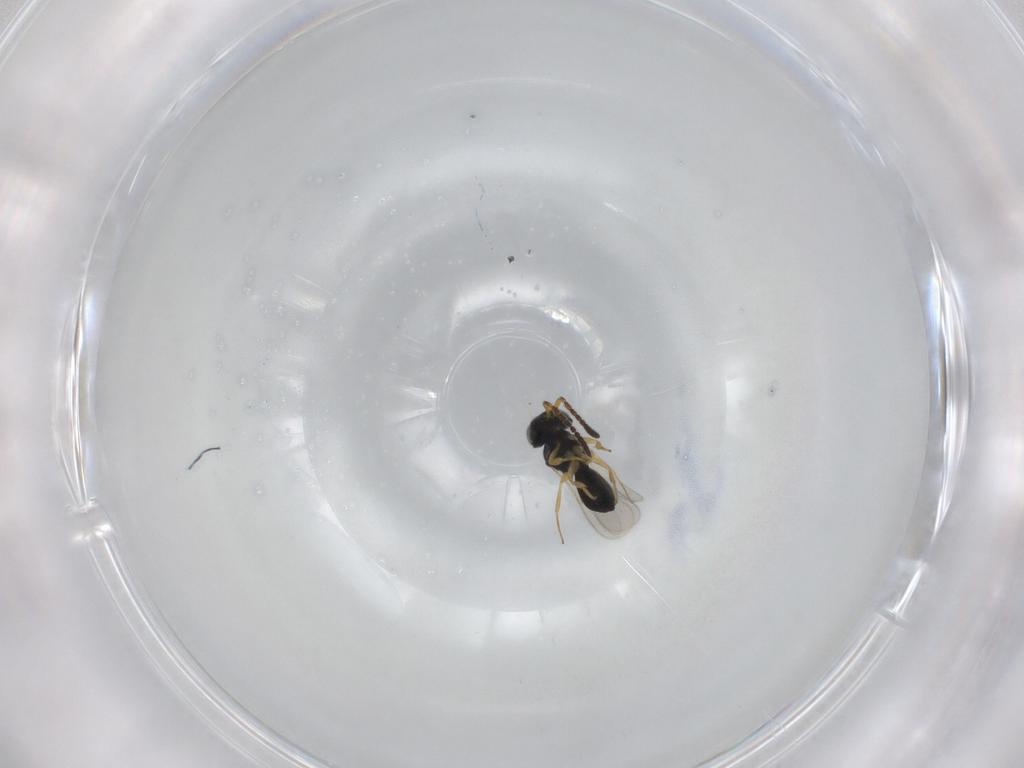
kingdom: Animalia
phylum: Arthropoda
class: Insecta
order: Hymenoptera
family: Scelionidae
